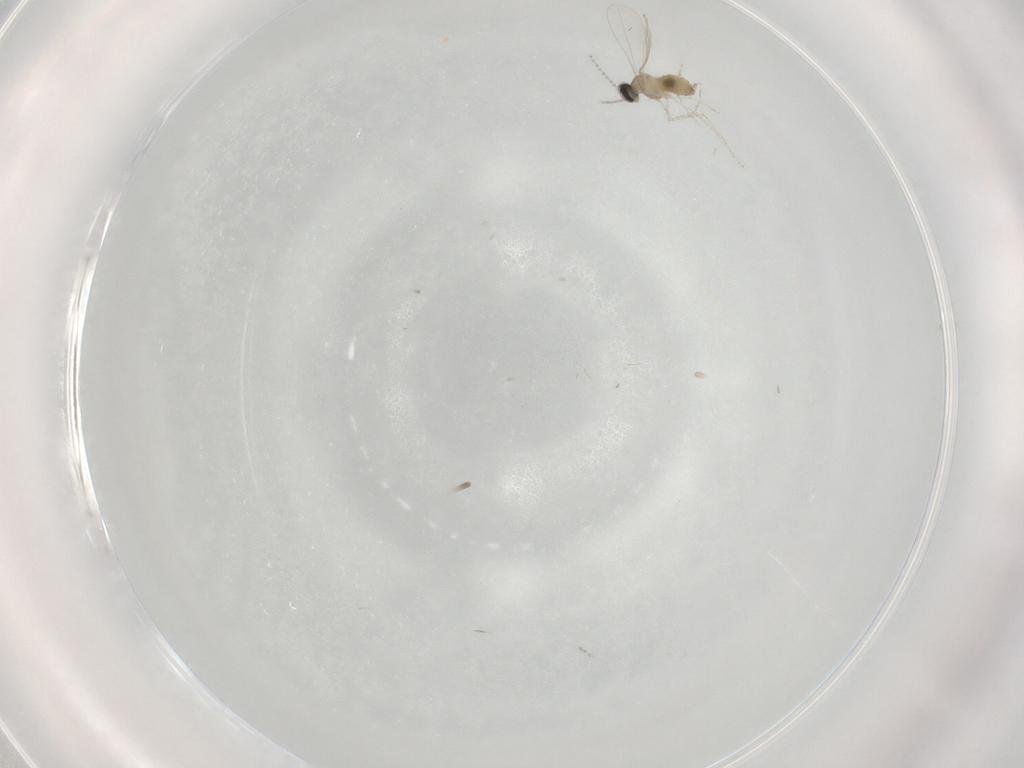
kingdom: Animalia
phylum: Arthropoda
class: Insecta
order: Diptera
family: Cecidomyiidae
